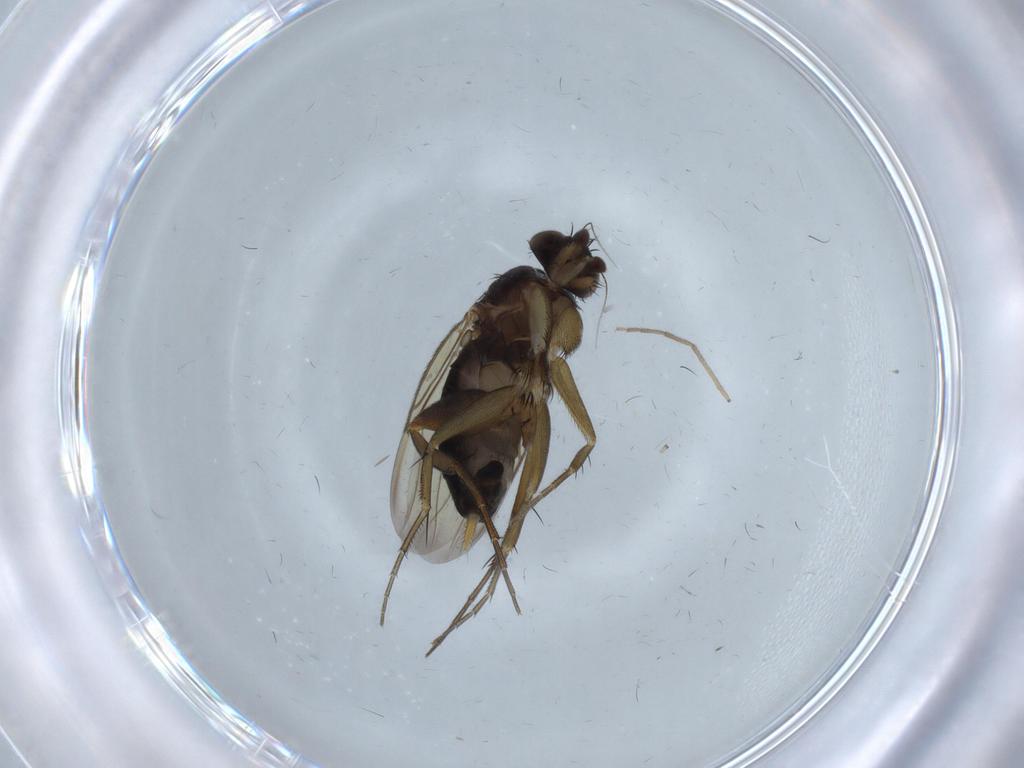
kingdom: Animalia
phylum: Arthropoda
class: Insecta
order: Diptera
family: Phoridae
